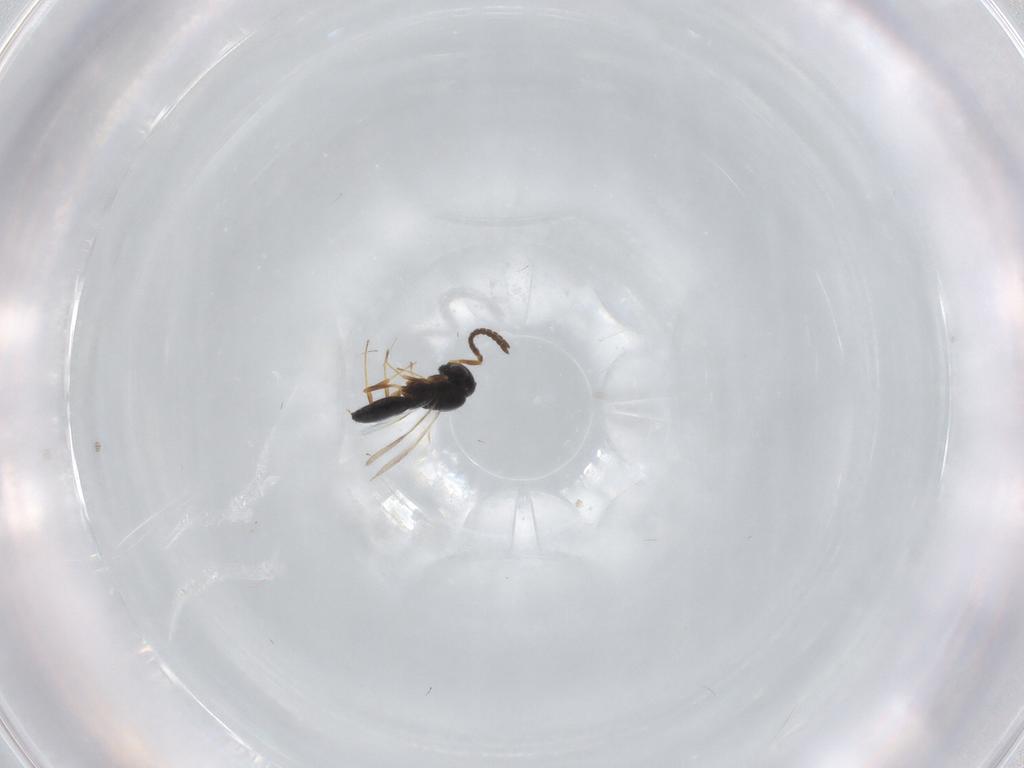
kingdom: Animalia
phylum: Arthropoda
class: Insecta
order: Hymenoptera
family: Scelionidae
